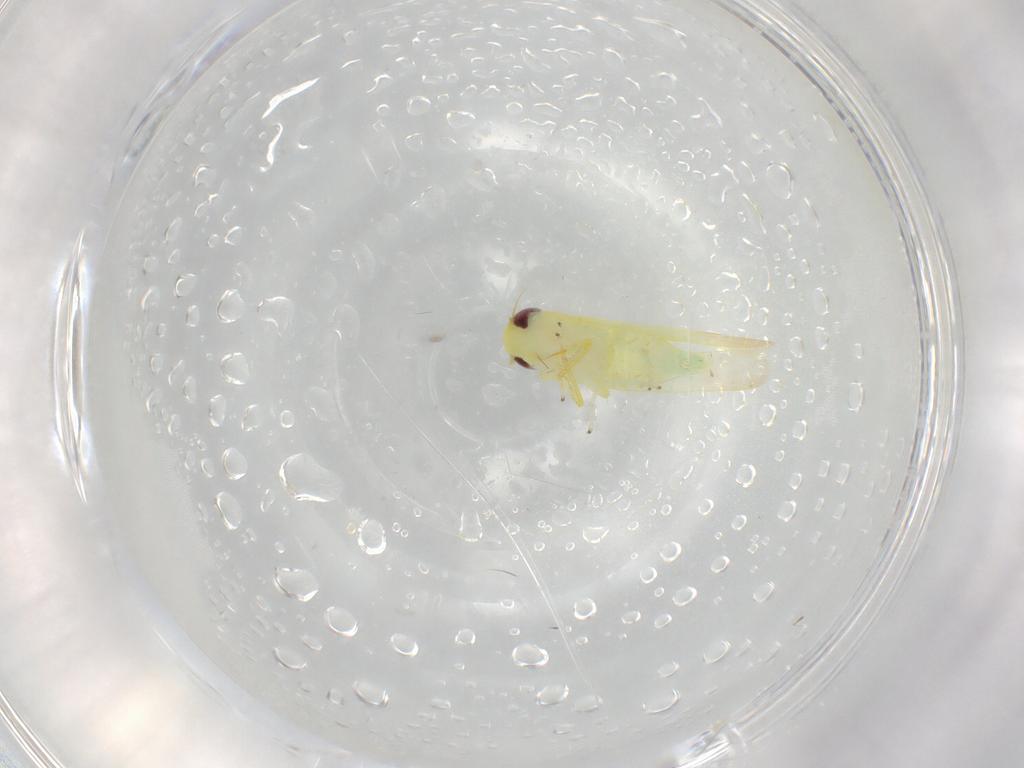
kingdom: Animalia
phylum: Arthropoda
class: Insecta
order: Hemiptera
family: Cicadellidae
